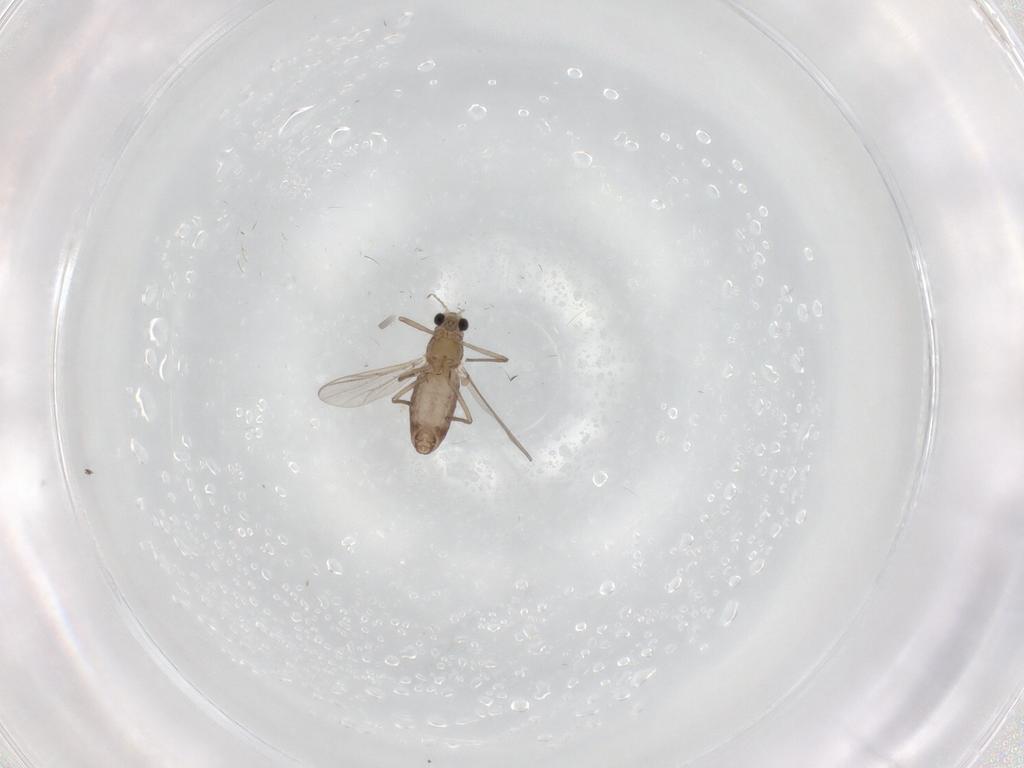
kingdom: Animalia
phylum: Arthropoda
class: Insecta
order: Diptera
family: Chironomidae
